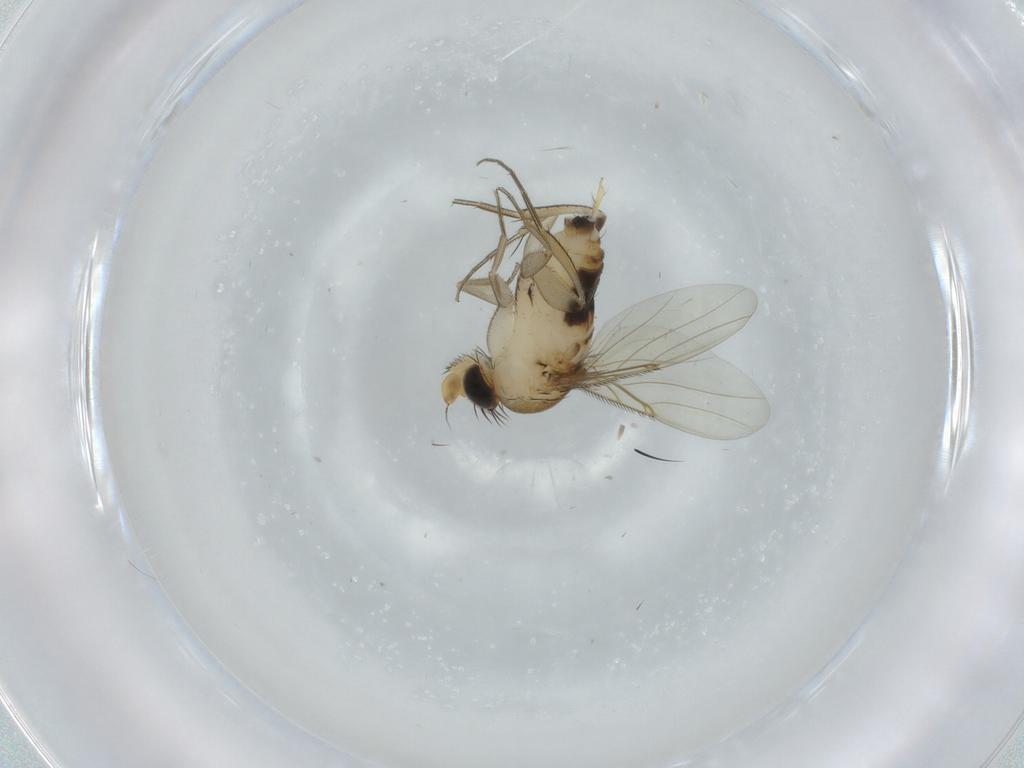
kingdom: Animalia
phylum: Arthropoda
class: Insecta
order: Diptera
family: Phoridae
